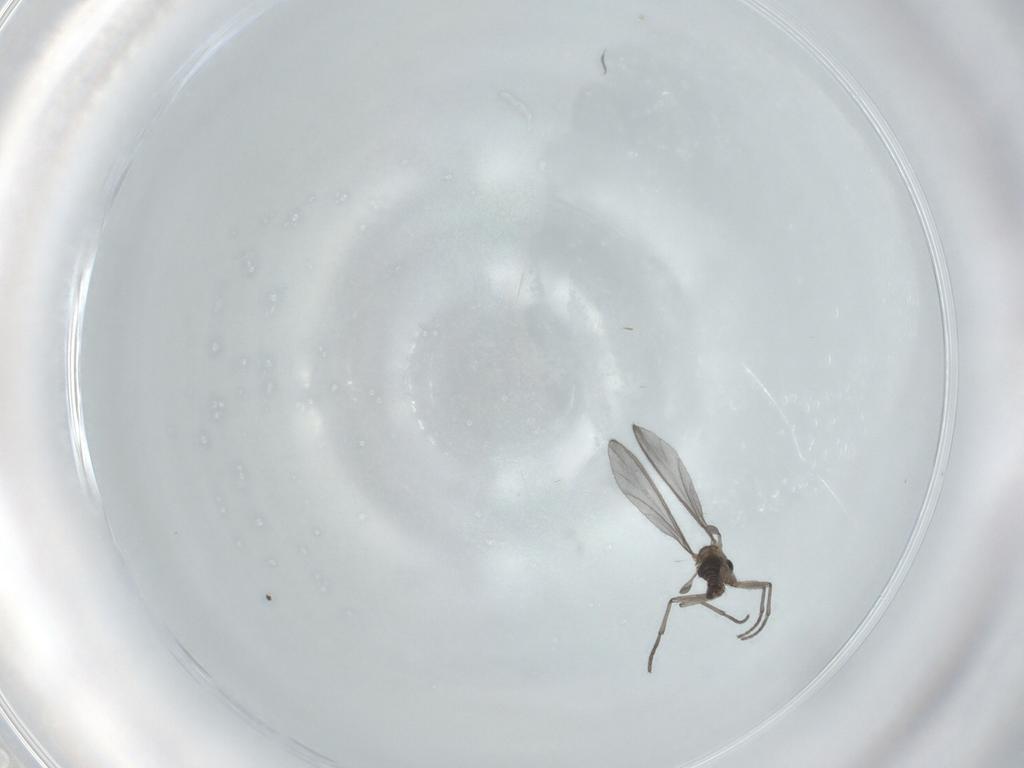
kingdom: Animalia
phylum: Arthropoda
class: Insecta
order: Diptera
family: Sciaridae
